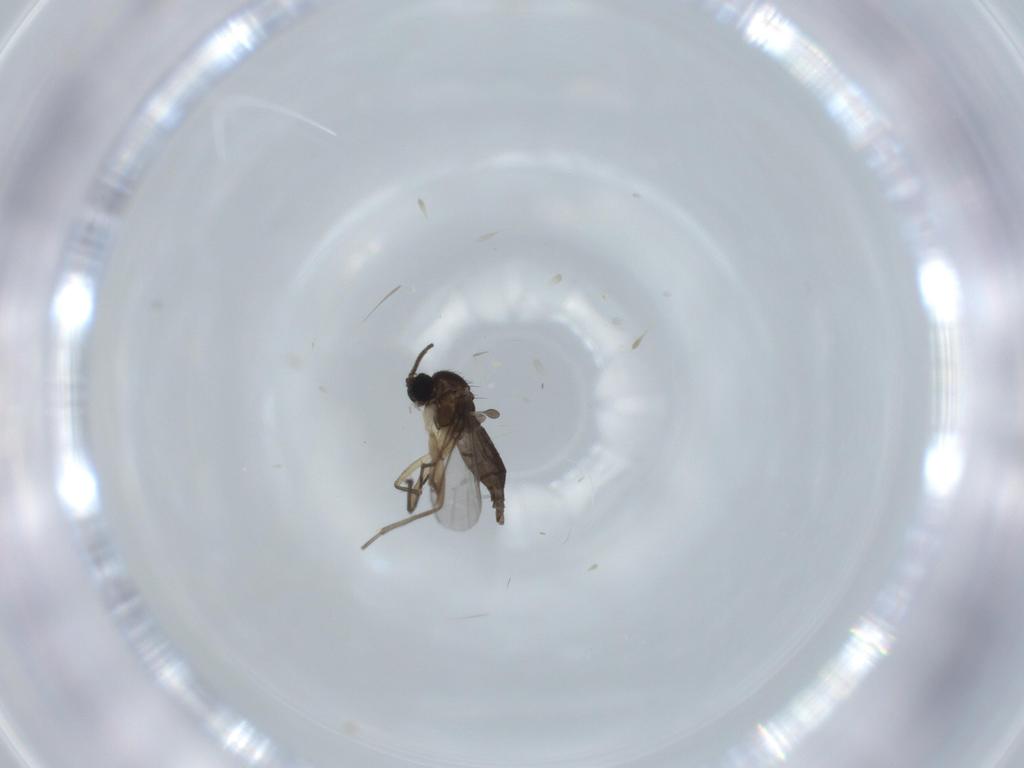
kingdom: Animalia
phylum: Arthropoda
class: Insecta
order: Diptera
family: Sciaridae
